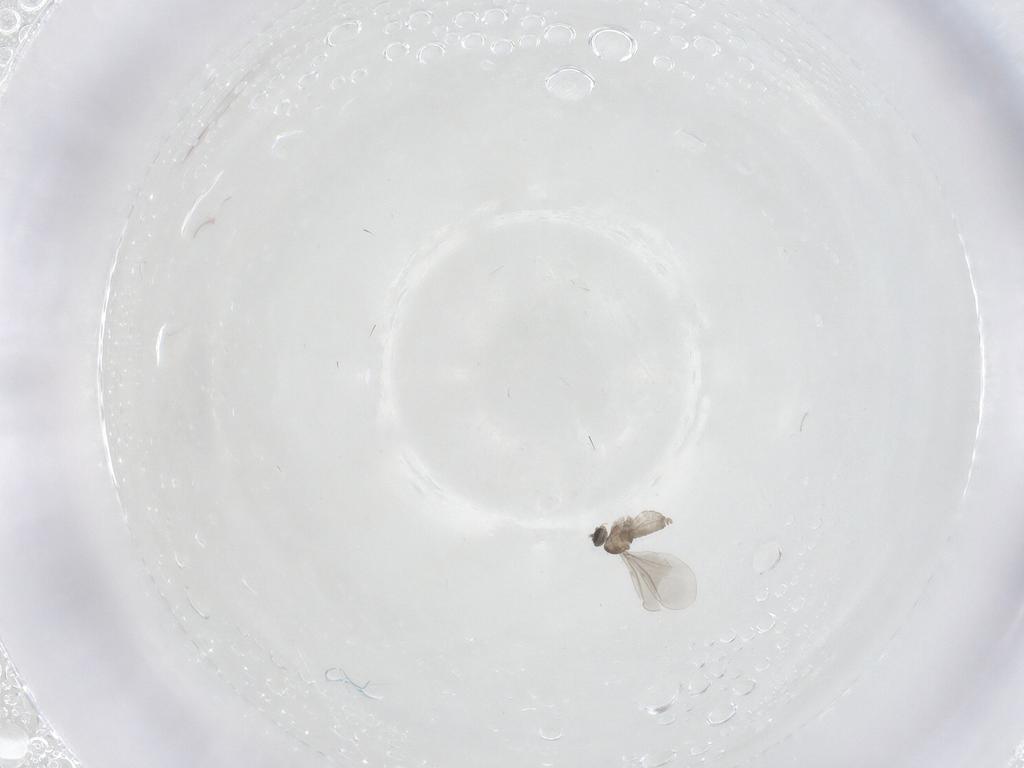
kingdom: Animalia
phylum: Arthropoda
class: Insecta
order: Diptera
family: Cecidomyiidae
